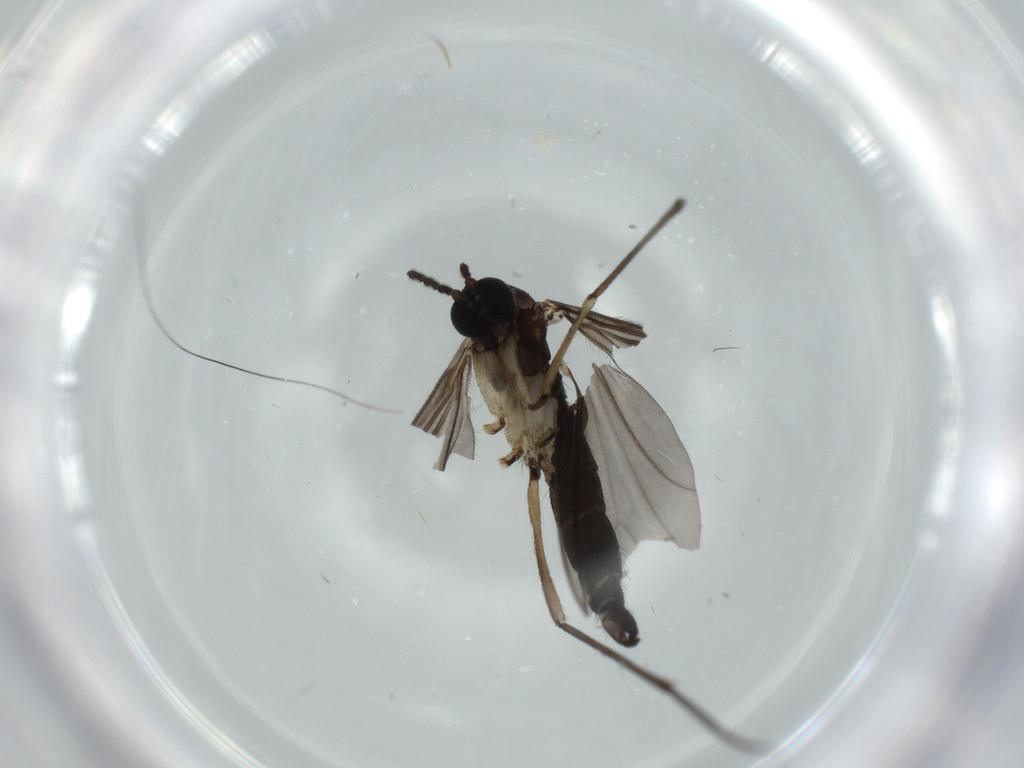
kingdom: Animalia
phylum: Arthropoda
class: Insecta
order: Diptera
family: Sciaridae
